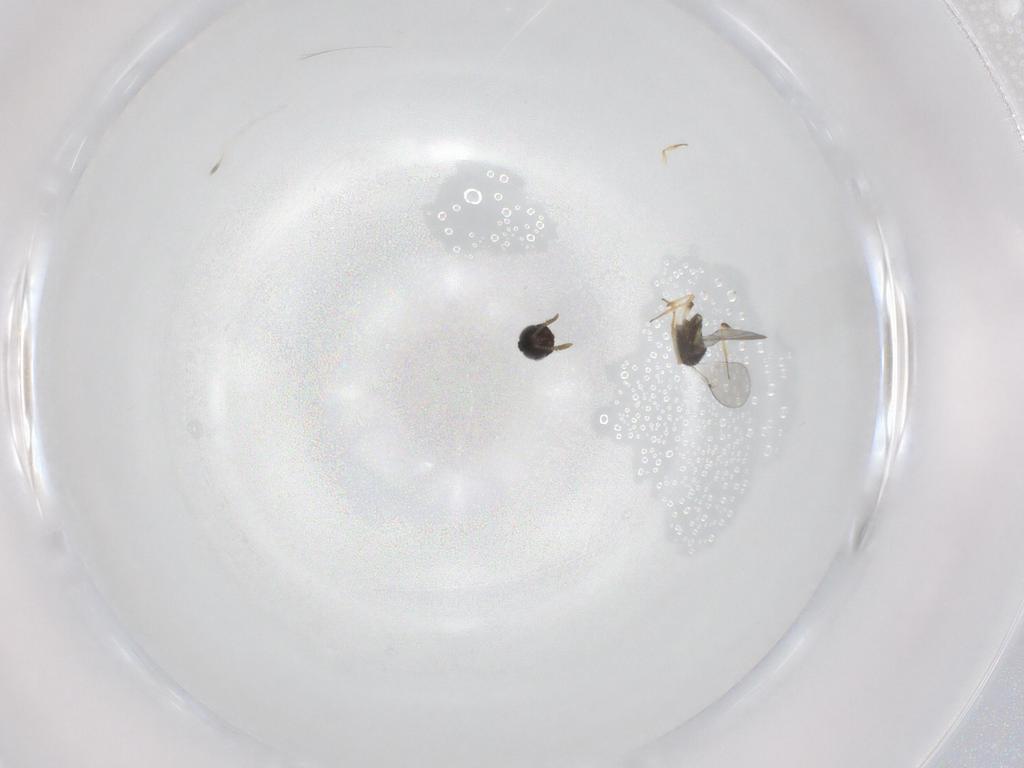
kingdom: Animalia
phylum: Arthropoda
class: Insecta
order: Hymenoptera
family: Encyrtidae
